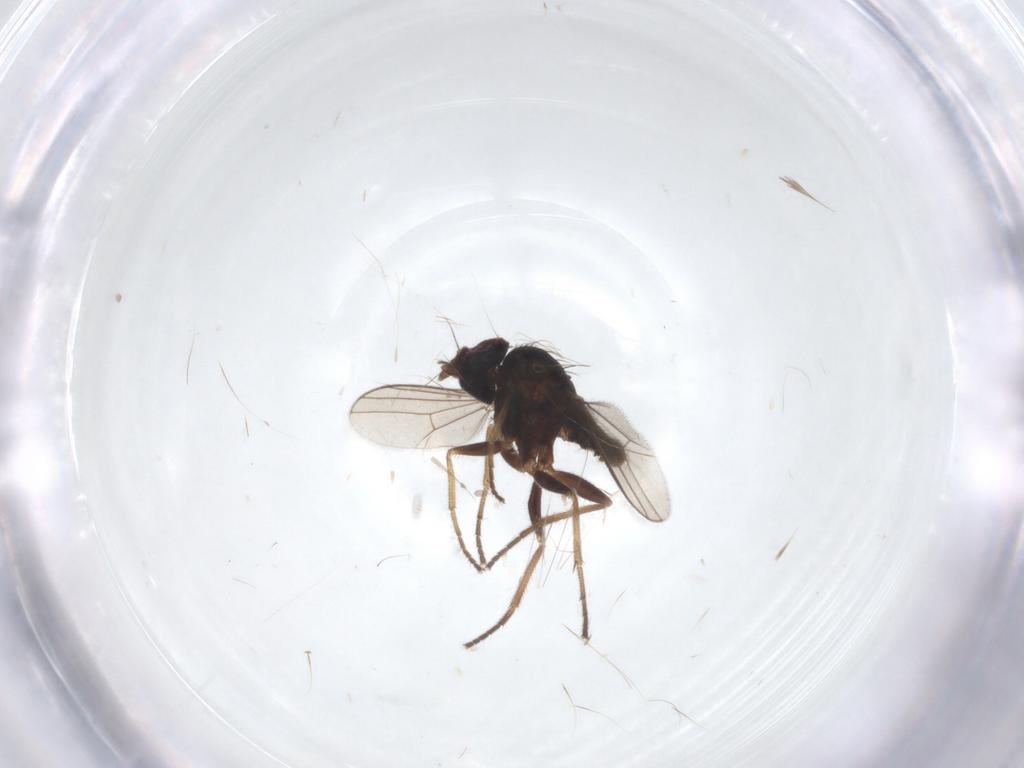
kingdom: Animalia
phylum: Arthropoda
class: Insecta
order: Diptera
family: Dolichopodidae
